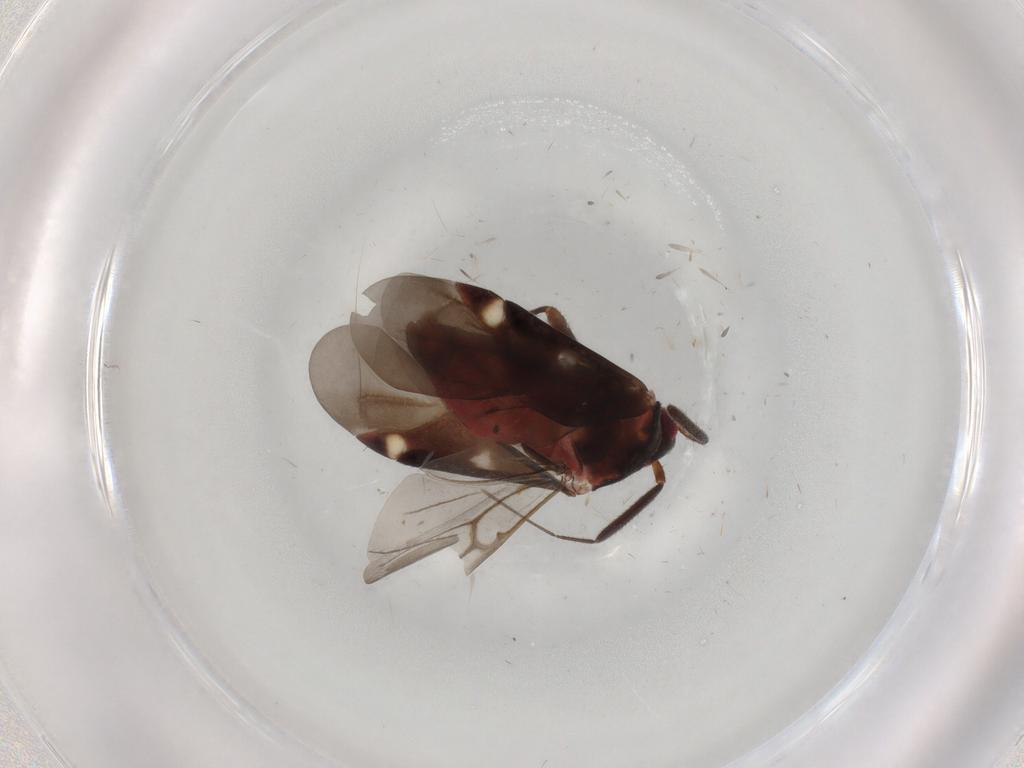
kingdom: Animalia
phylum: Arthropoda
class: Insecta
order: Hemiptera
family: Miridae
